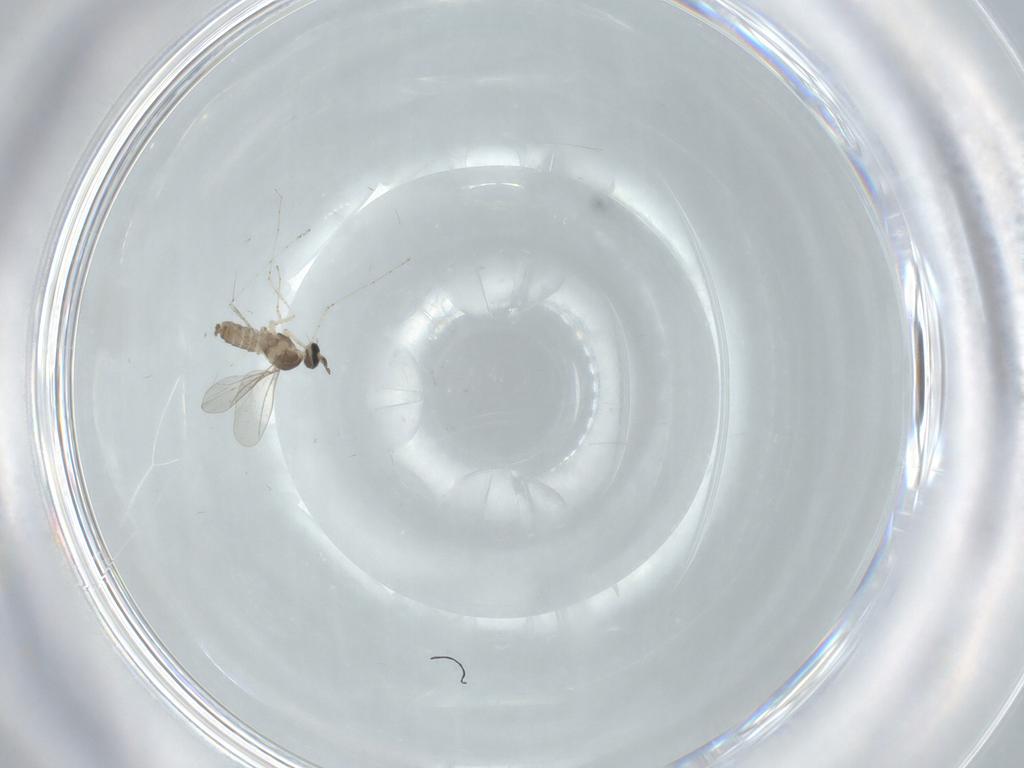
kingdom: Animalia
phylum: Arthropoda
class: Insecta
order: Diptera
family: Cecidomyiidae
